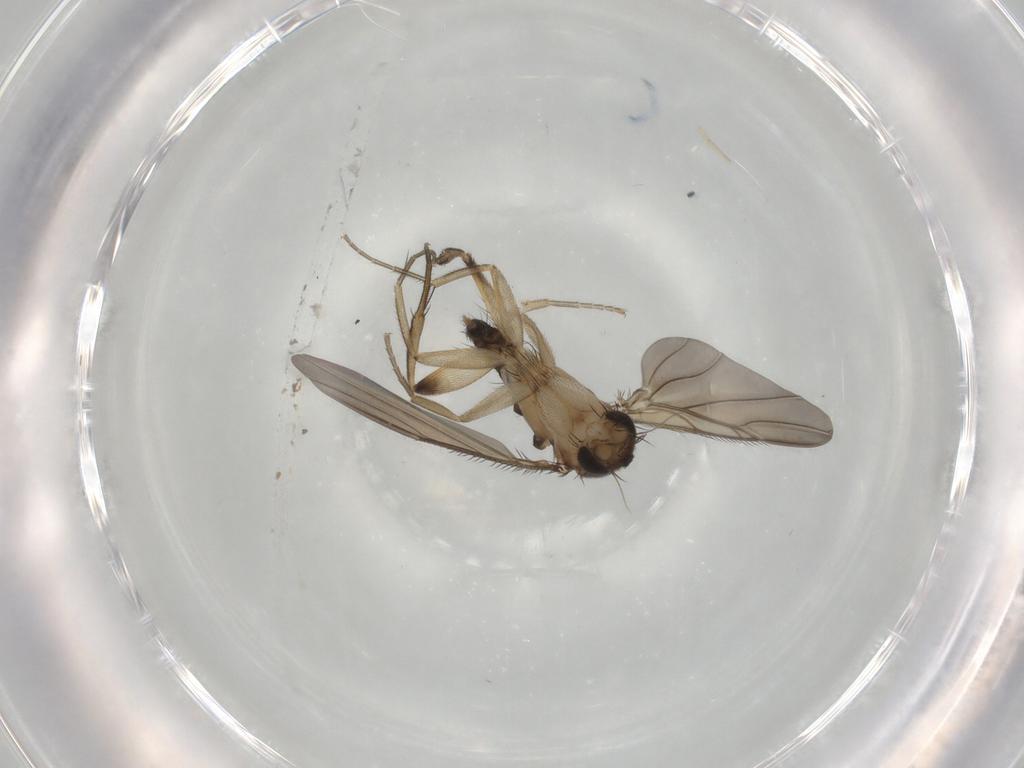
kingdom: Animalia
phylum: Arthropoda
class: Insecta
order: Diptera
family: Phoridae
